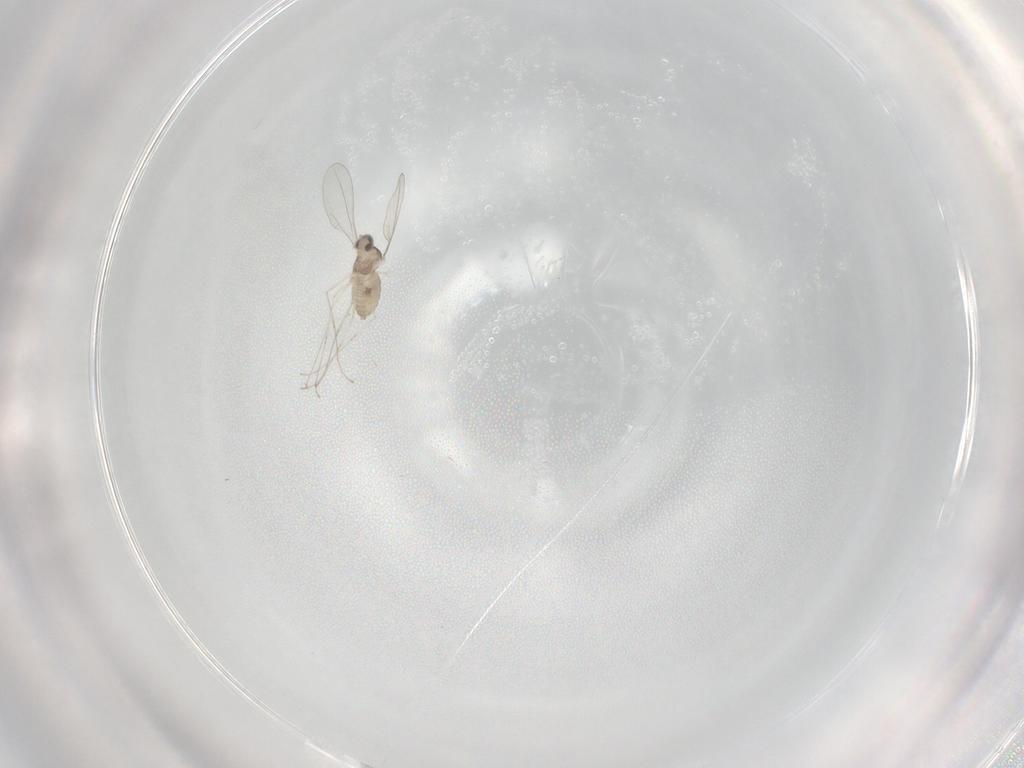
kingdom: Animalia
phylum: Arthropoda
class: Insecta
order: Diptera
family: Cecidomyiidae
